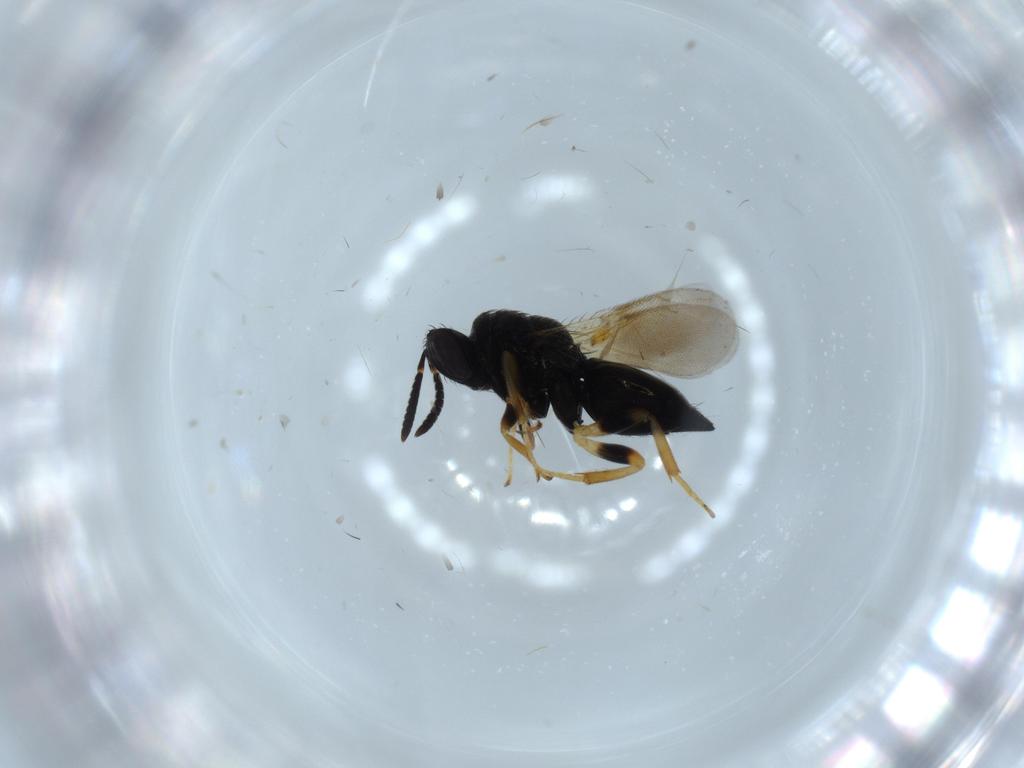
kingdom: Animalia
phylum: Arthropoda
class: Insecta
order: Hymenoptera
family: Pteromalidae
